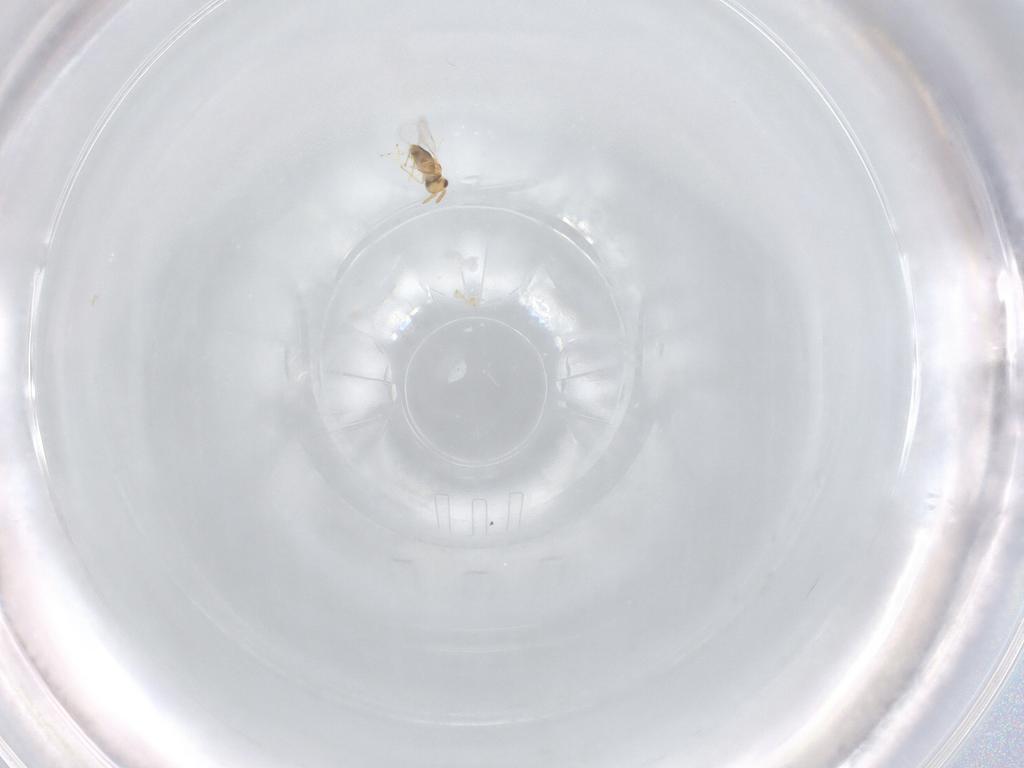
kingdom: Animalia
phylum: Arthropoda
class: Insecta
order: Hymenoptera
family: Aphelinidae
